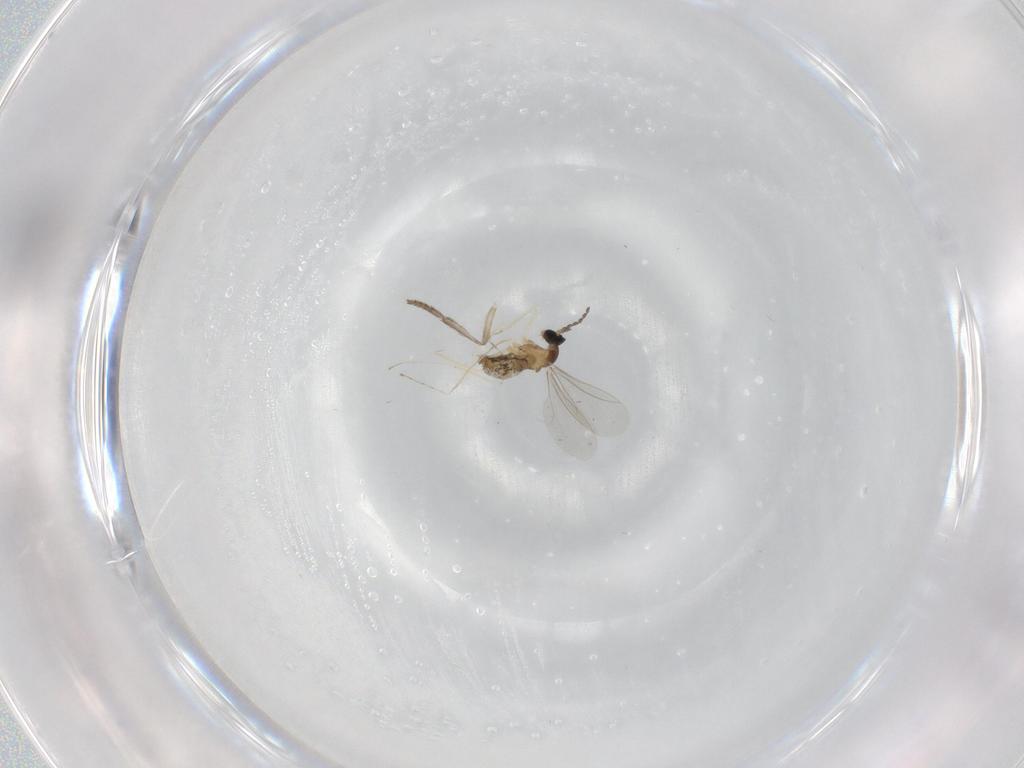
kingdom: Animalia
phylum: Arthropoda
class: Insecta
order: Diptera
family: Cecidomyiidae
